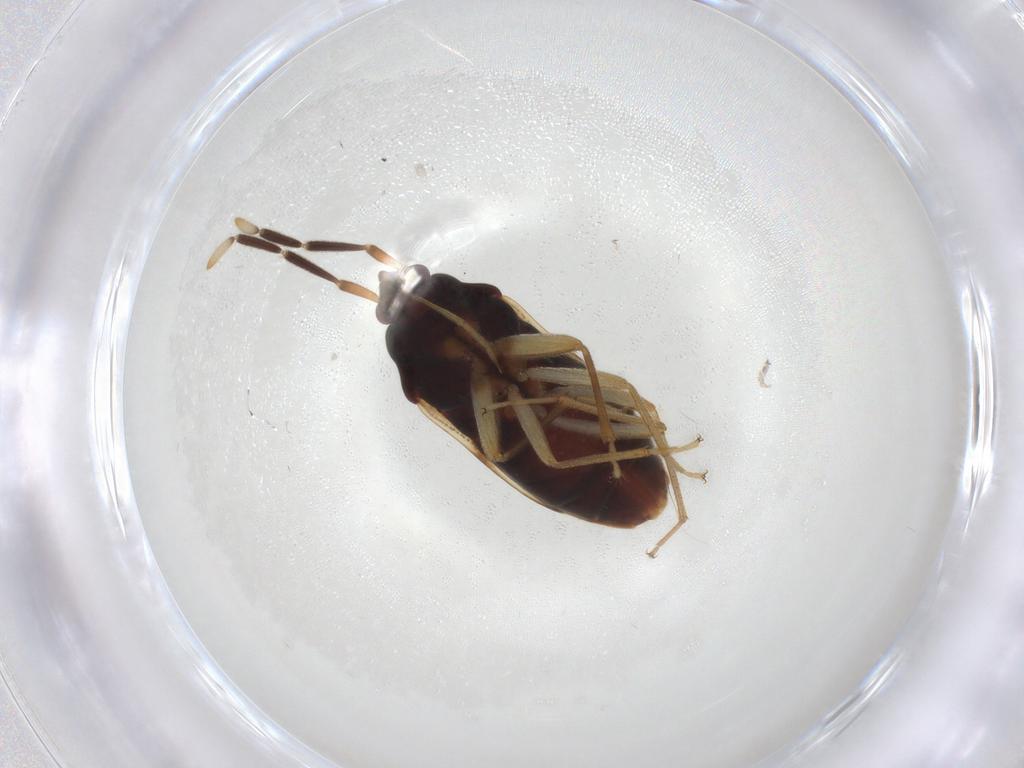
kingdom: Animalia
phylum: Arthropoda
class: Insecta
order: Hemiptera
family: Rhyparochromidae
